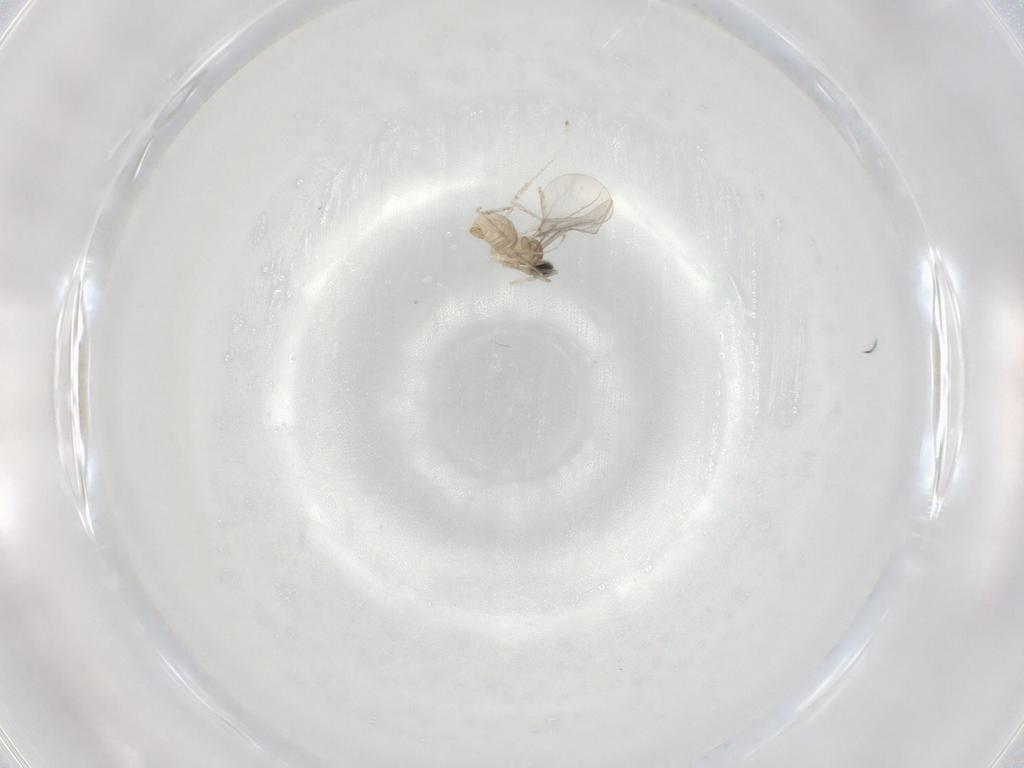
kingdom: Animalia
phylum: Arthropoda
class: Insecta
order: Diptera
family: Cecidomyiidae
